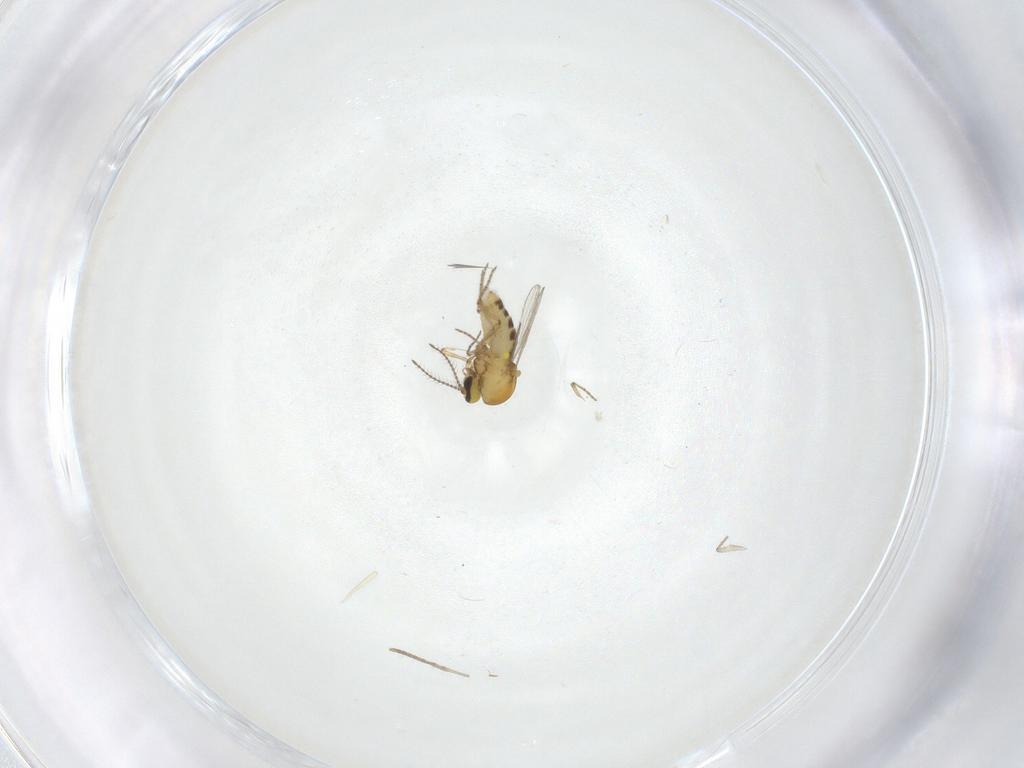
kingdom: Animalia
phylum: Arthropoda
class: Insecta
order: Diptera
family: Ceratopogonidae
